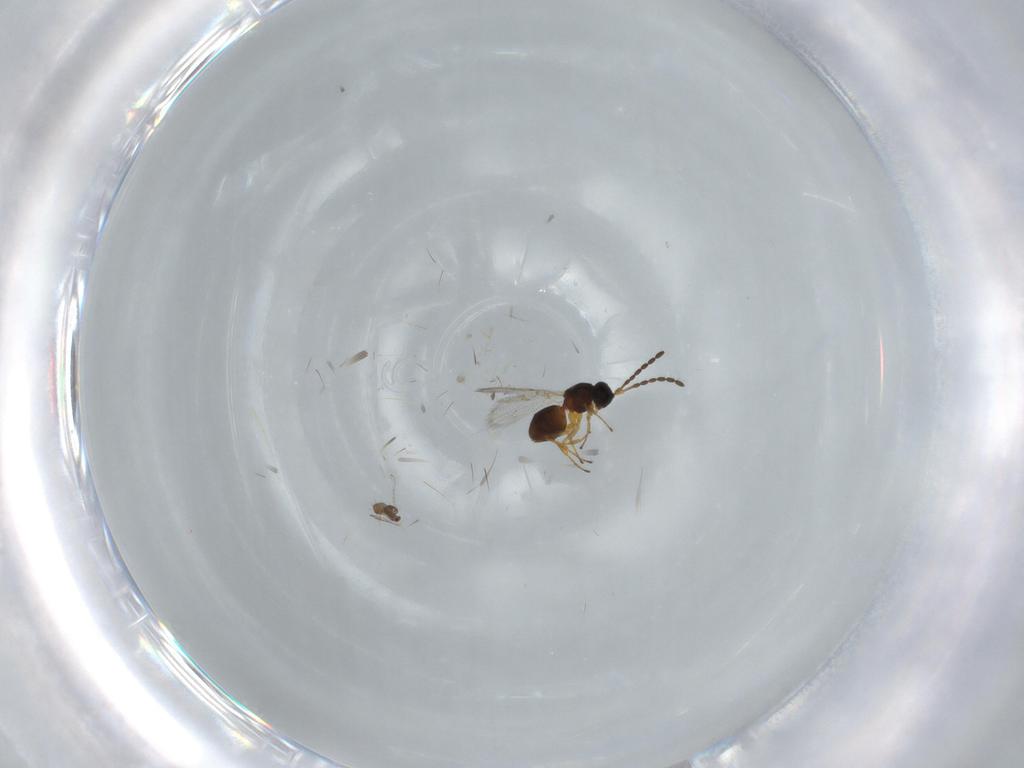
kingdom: Animalia
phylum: Arthropoda
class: Insecta
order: Hymenoptera
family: Figitidae
